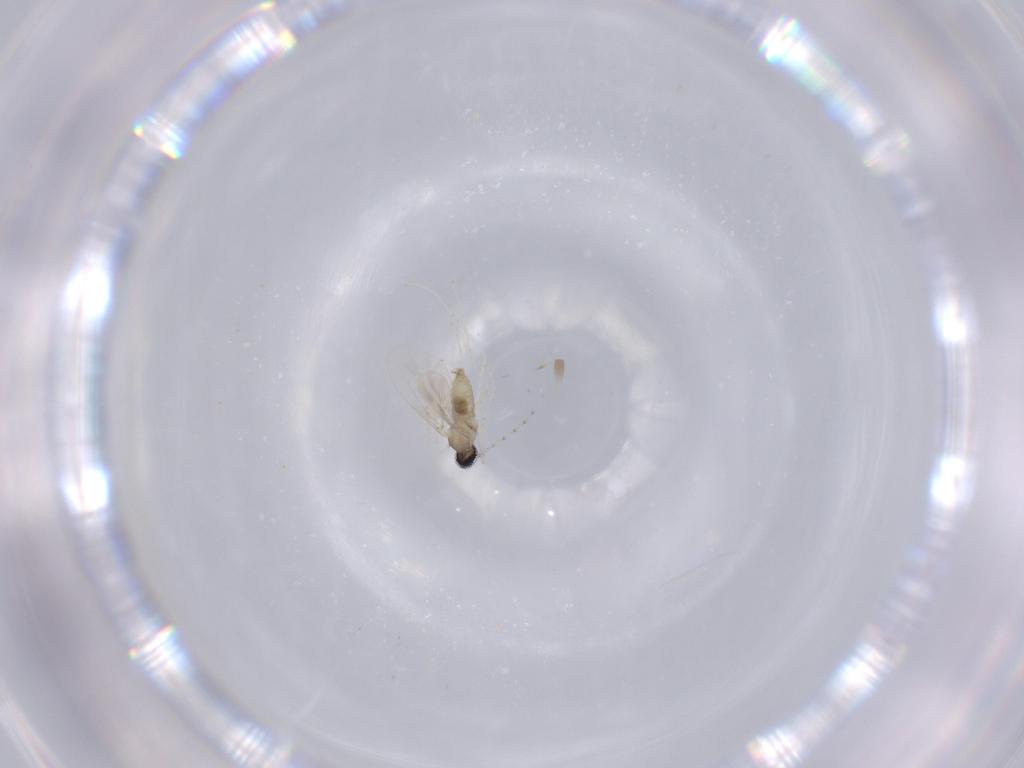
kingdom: Animalia
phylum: Arthropoda
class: Insecta
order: Diptera
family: Cecidomyiidae
